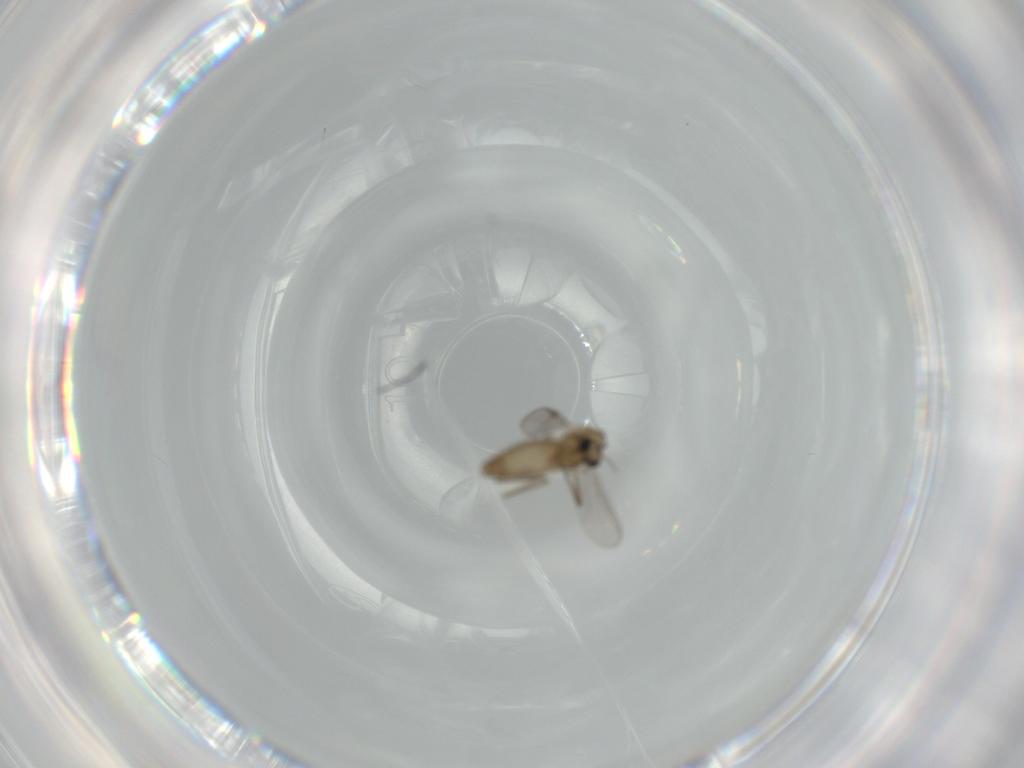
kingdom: Animalia
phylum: Arthropoda
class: Insecta
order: Diptera
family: Chironomidae
